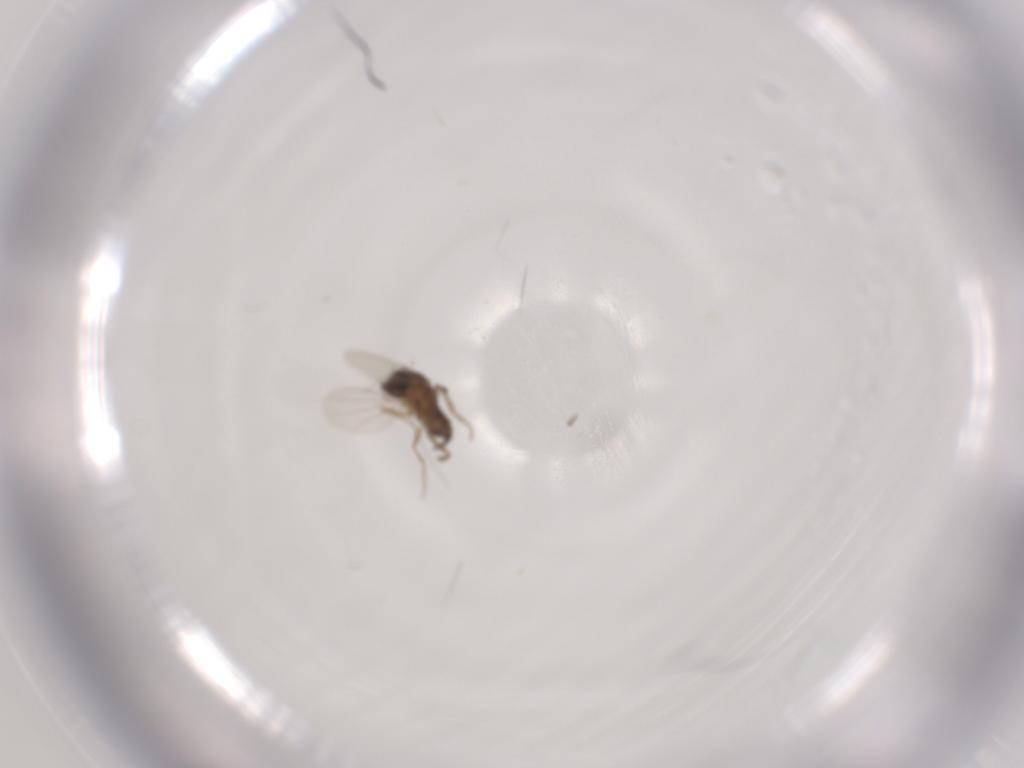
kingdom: Animalia
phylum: Arthropoda
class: Insecta
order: Diptera
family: Phoridae
